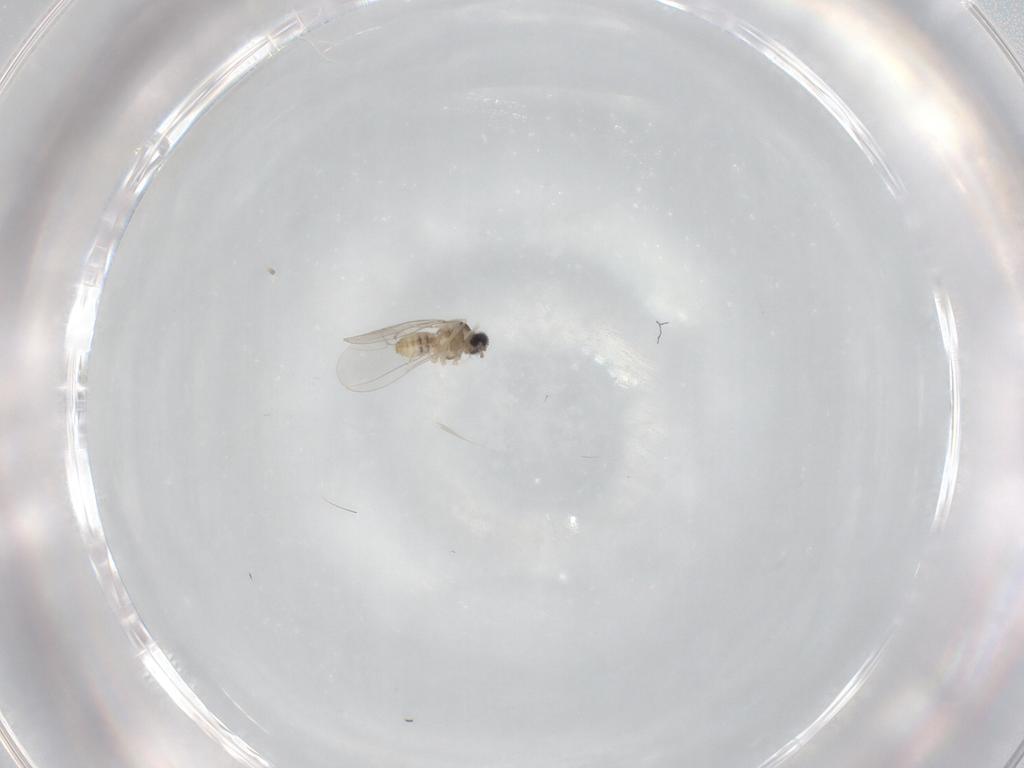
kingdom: Animalia
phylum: Arthropoda
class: Insecta
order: Diptera
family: Cecidomyiidae
